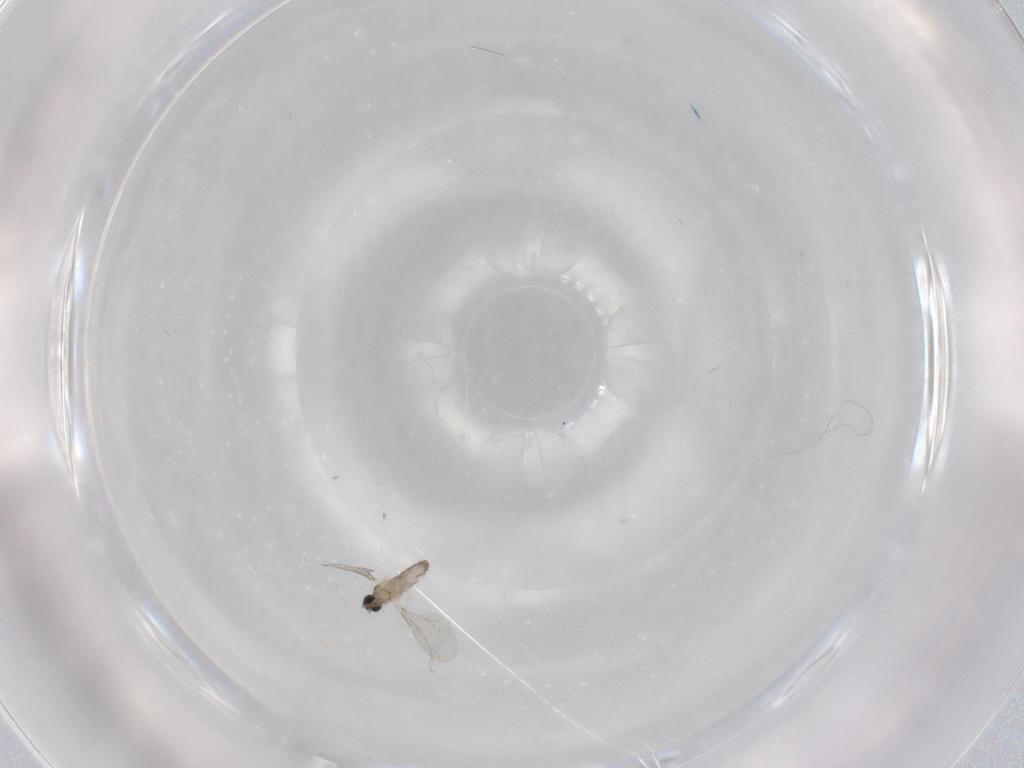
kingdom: Animalia
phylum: Arthropoda
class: Insecta
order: Diptera
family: Cecidomyiidae
